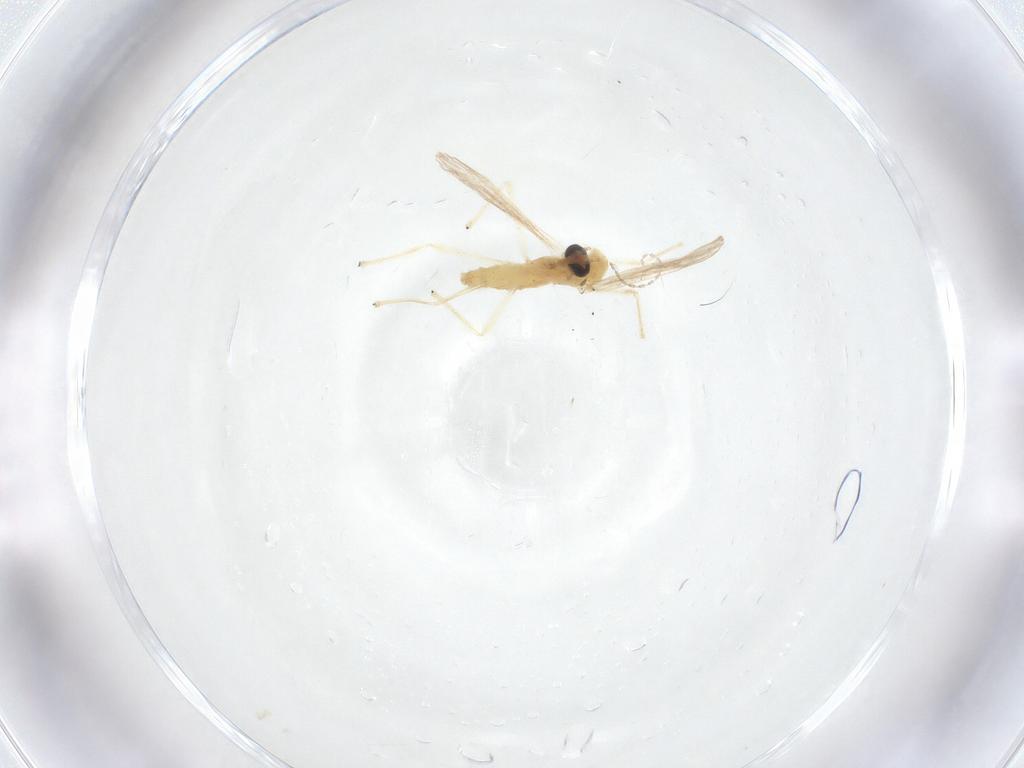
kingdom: Animalia
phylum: Arthropoda
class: Insecta
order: Diptera
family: Chironomidae
